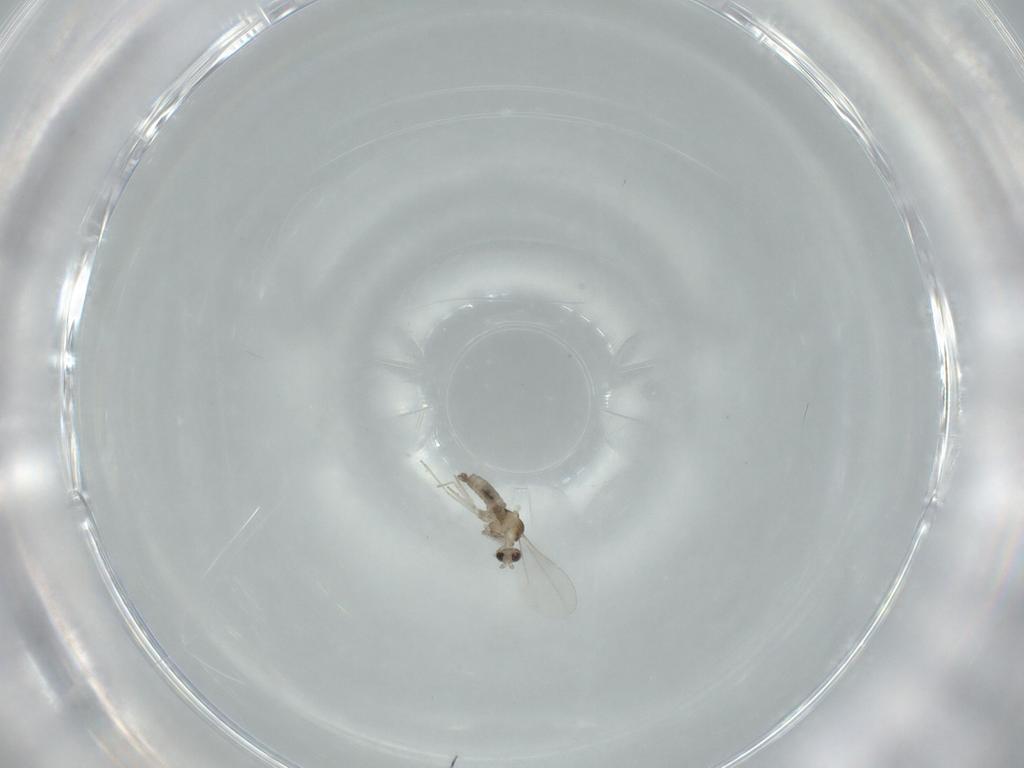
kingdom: Animalia
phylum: Arthropoda
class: Insecta
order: Diptera
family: Chironomidae
